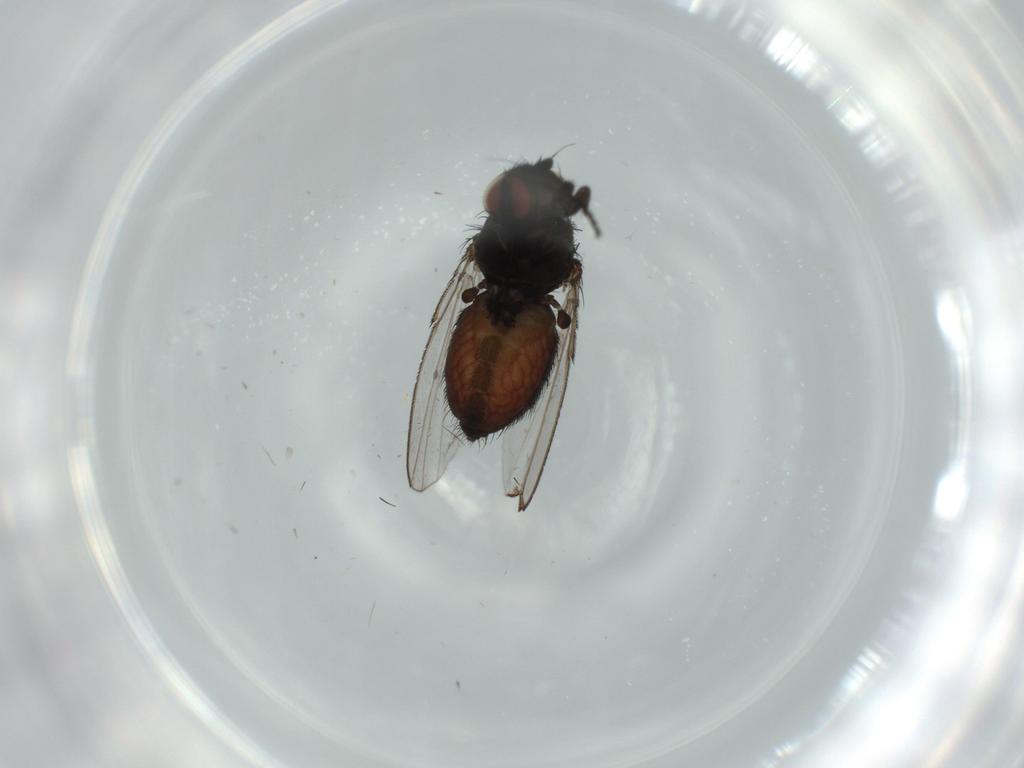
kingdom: Animalia
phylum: Arthropoda
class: Insecta
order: Diptera
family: Milichiidae
